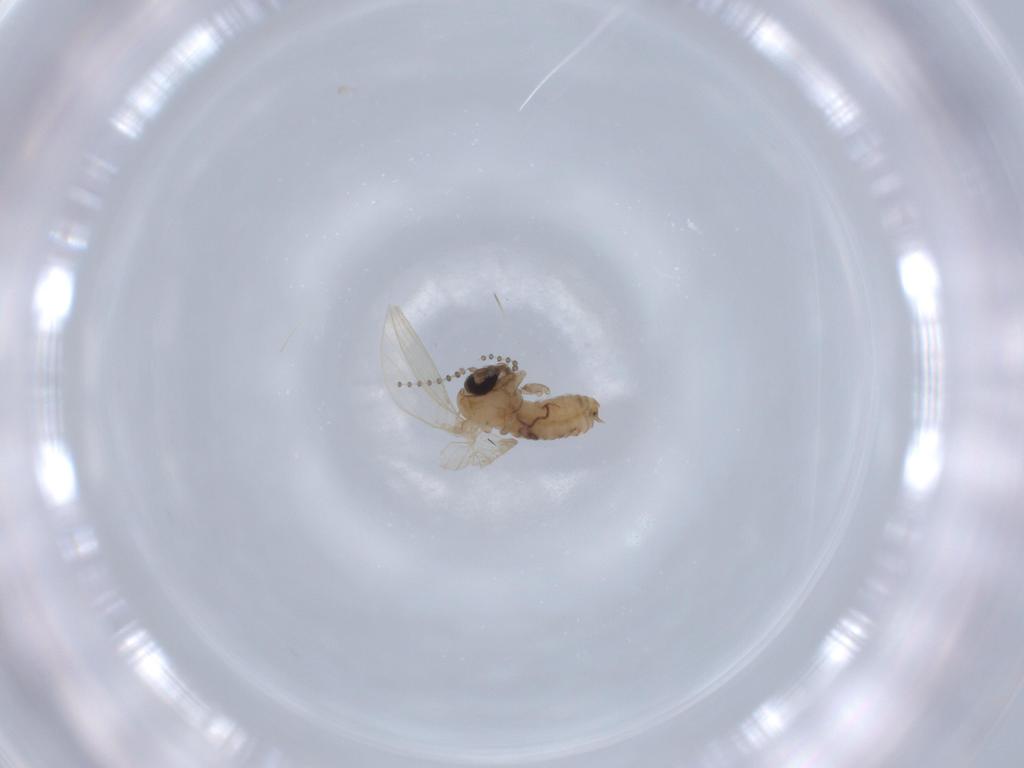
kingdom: Animalia
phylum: Arthropoda
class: Insecta
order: Diptera
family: Psychodidae
